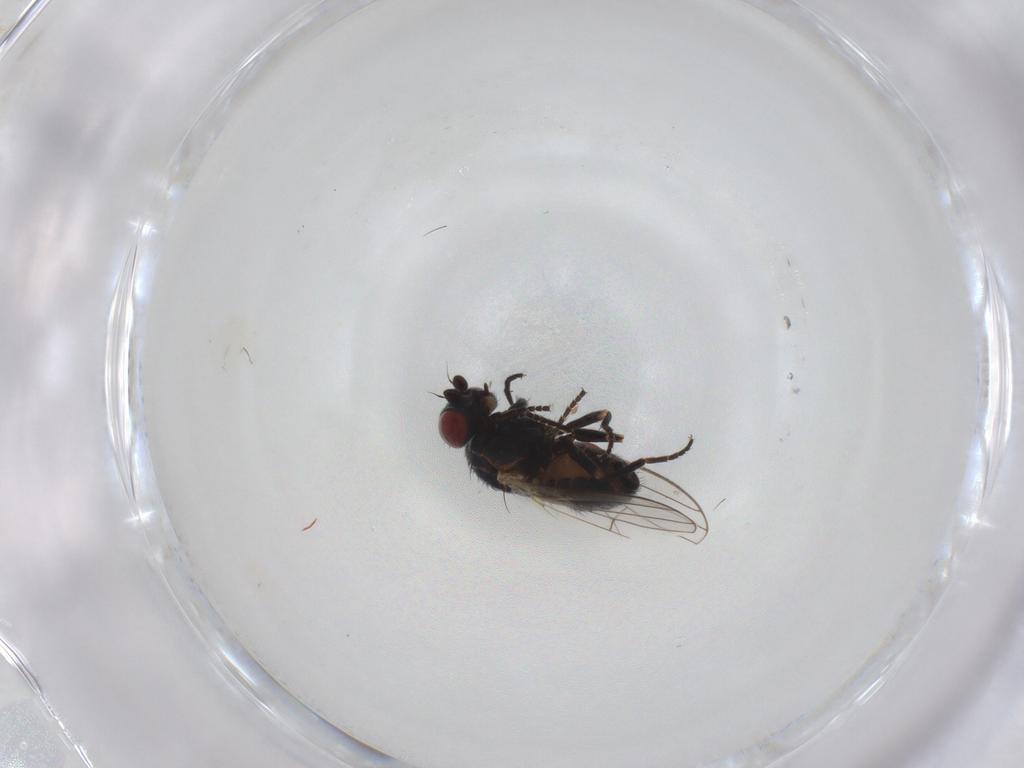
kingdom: Animalia
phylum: Arthropoda
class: Insecta
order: Diptera
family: Chamaemyiidae
